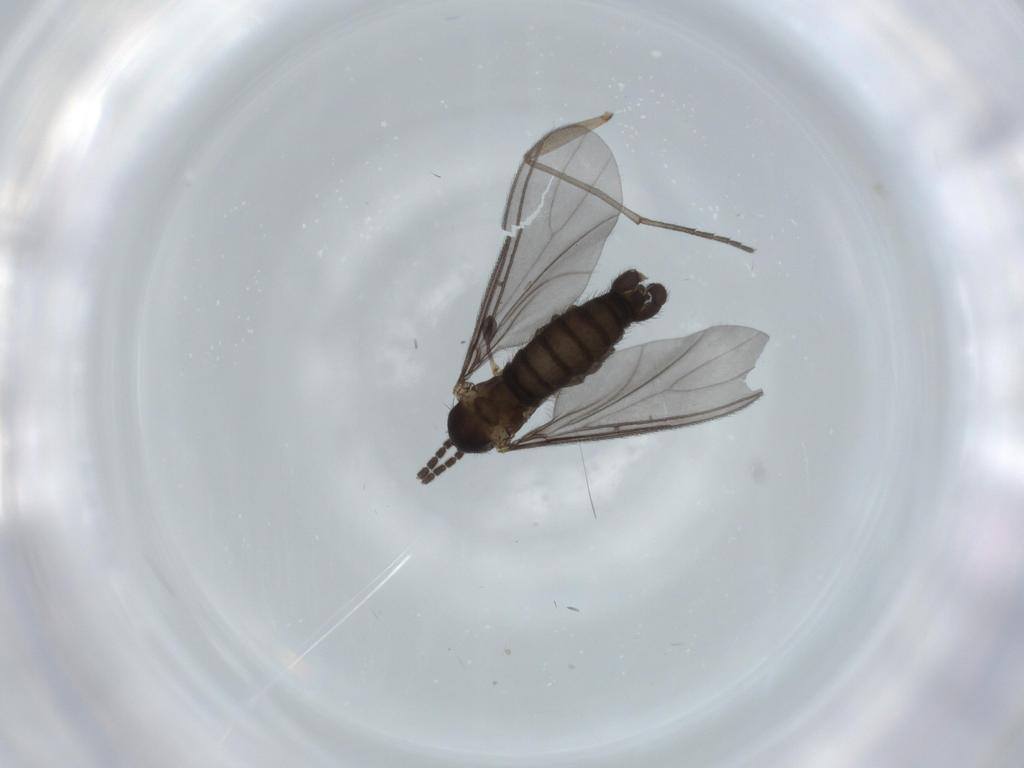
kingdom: Animalia
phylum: Arthropoda
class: Insecta
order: Diptera
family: Sciaridae
